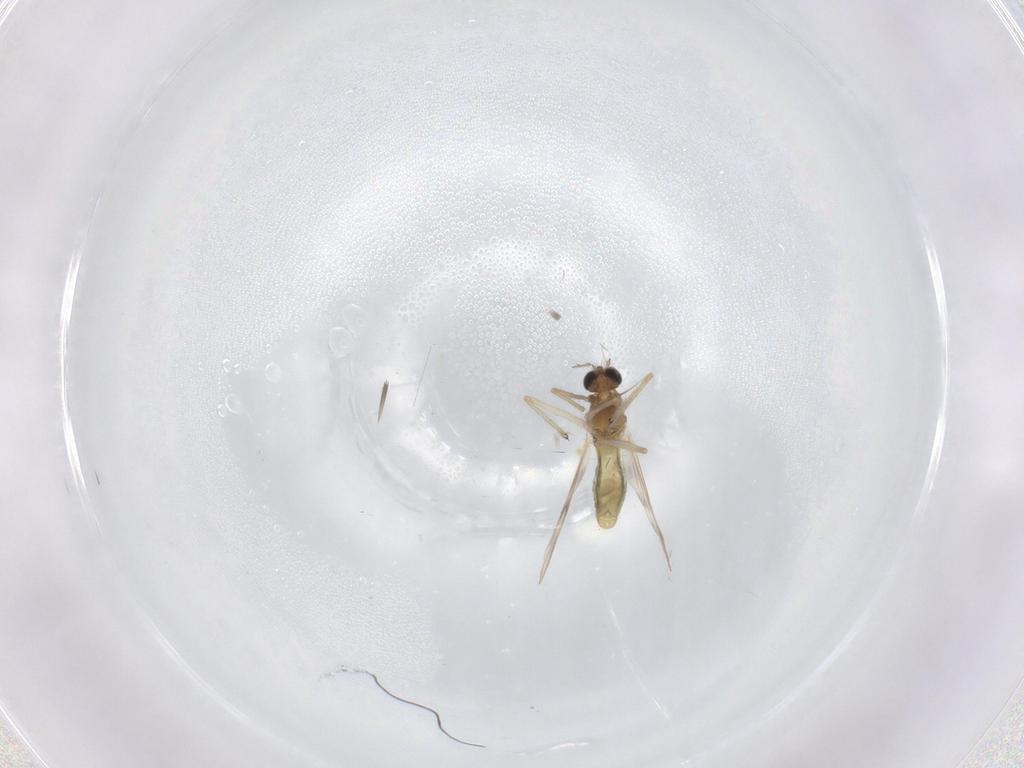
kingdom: Animalia
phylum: Arthropoda
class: Insecta
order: Diptera
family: Chironomidae
